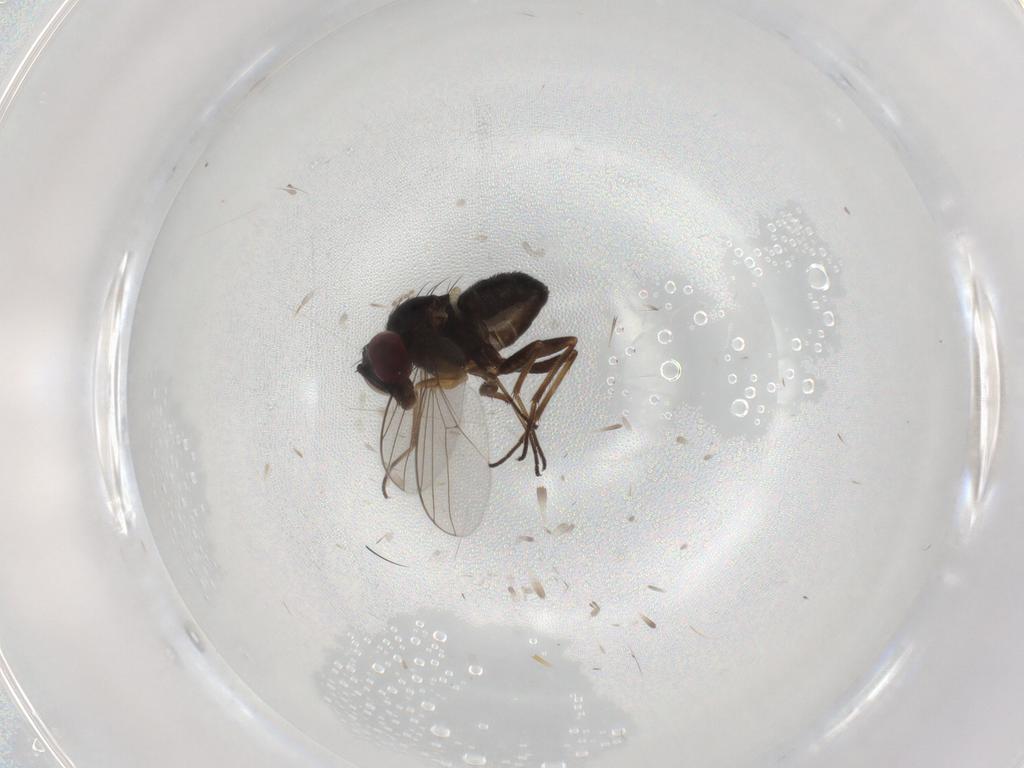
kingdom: Animalia
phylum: Arthropoda
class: Insecta
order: Diptera
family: Dolichopodidae
